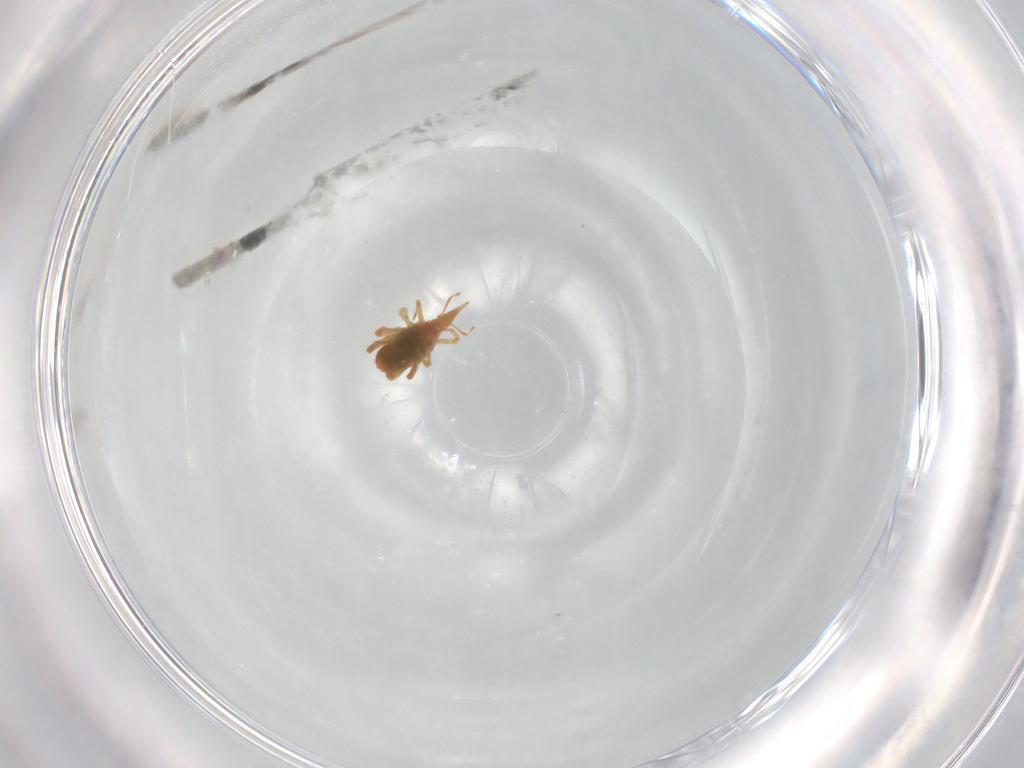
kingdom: Animalia
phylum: Arthropoda
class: Arachnida
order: Trombidiformes
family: Bdellidae
